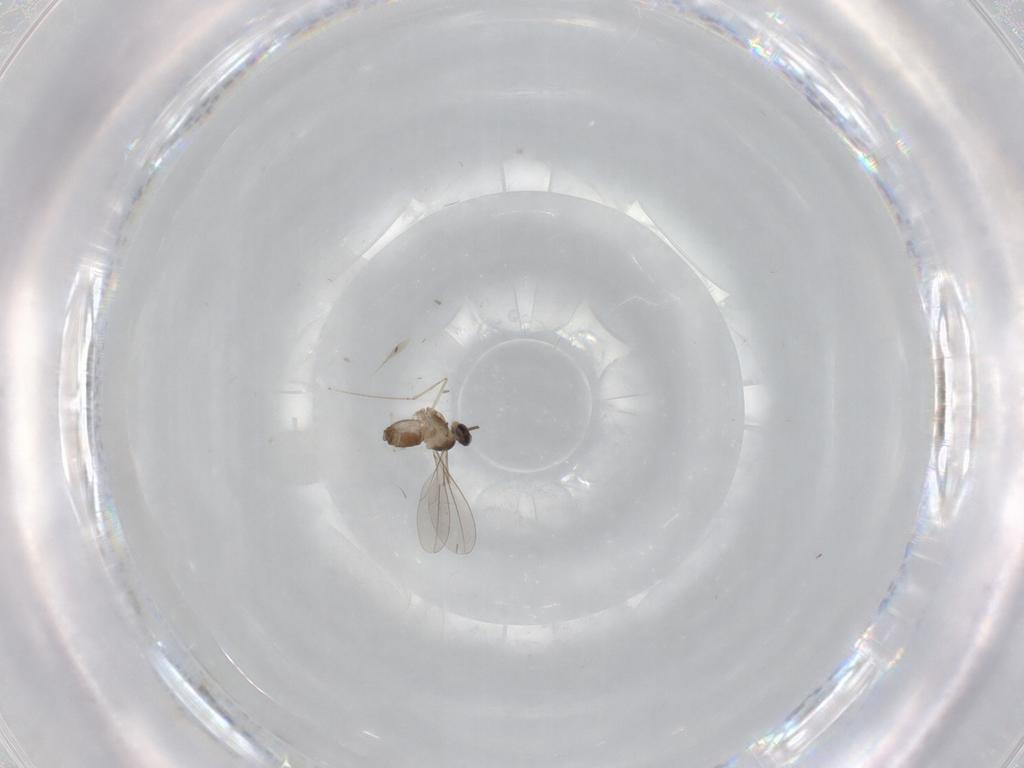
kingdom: Animalia
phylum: Arthropoda
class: Insecta
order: Diptera
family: Cecidomyiidae
